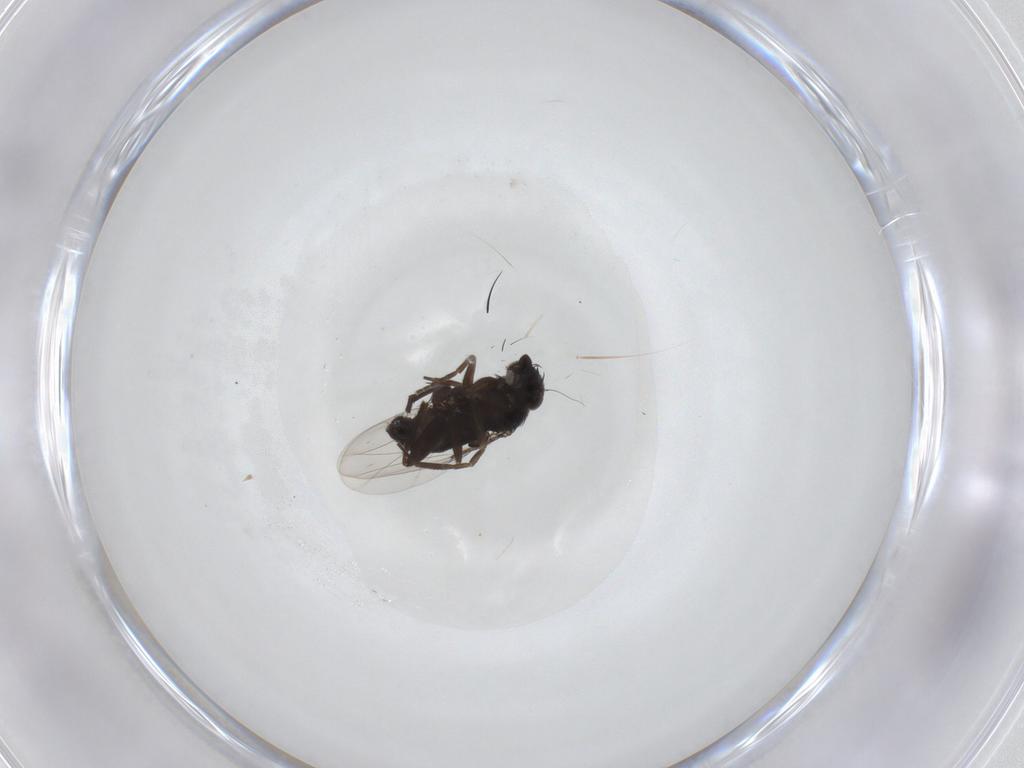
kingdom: Animalia
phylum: Arthropoda
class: Insecta
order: Diptera
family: Phoridae
